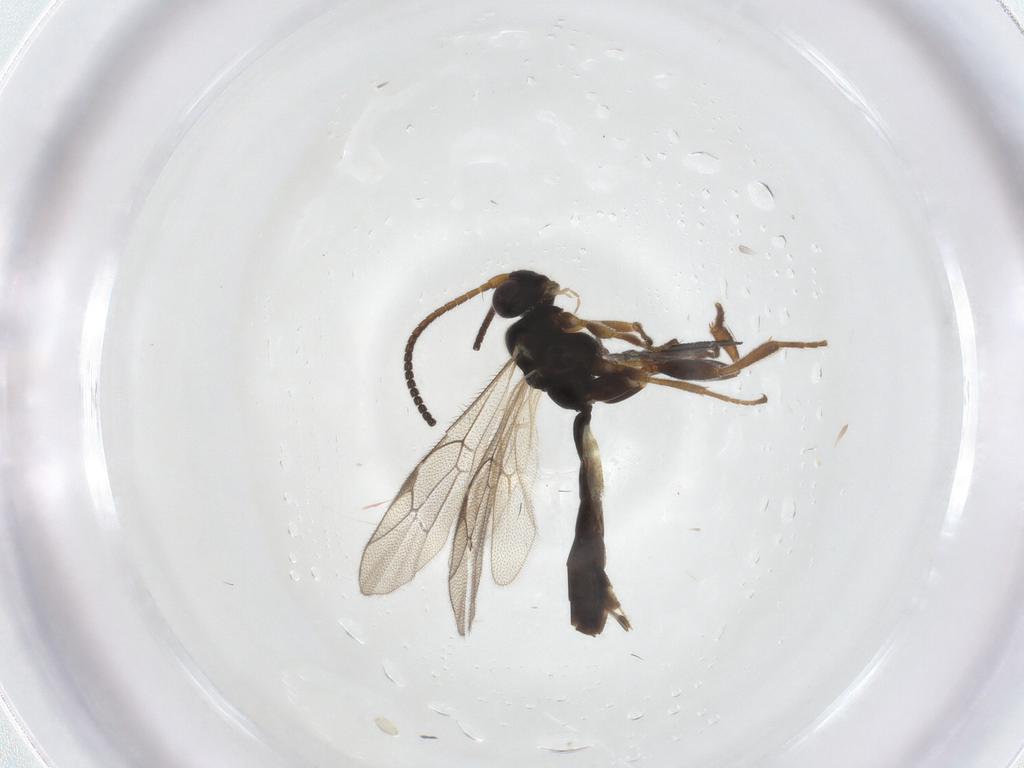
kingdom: Animalia
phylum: Arthropoda
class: Insecta
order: Hymenoptera
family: Ichneumonidae
